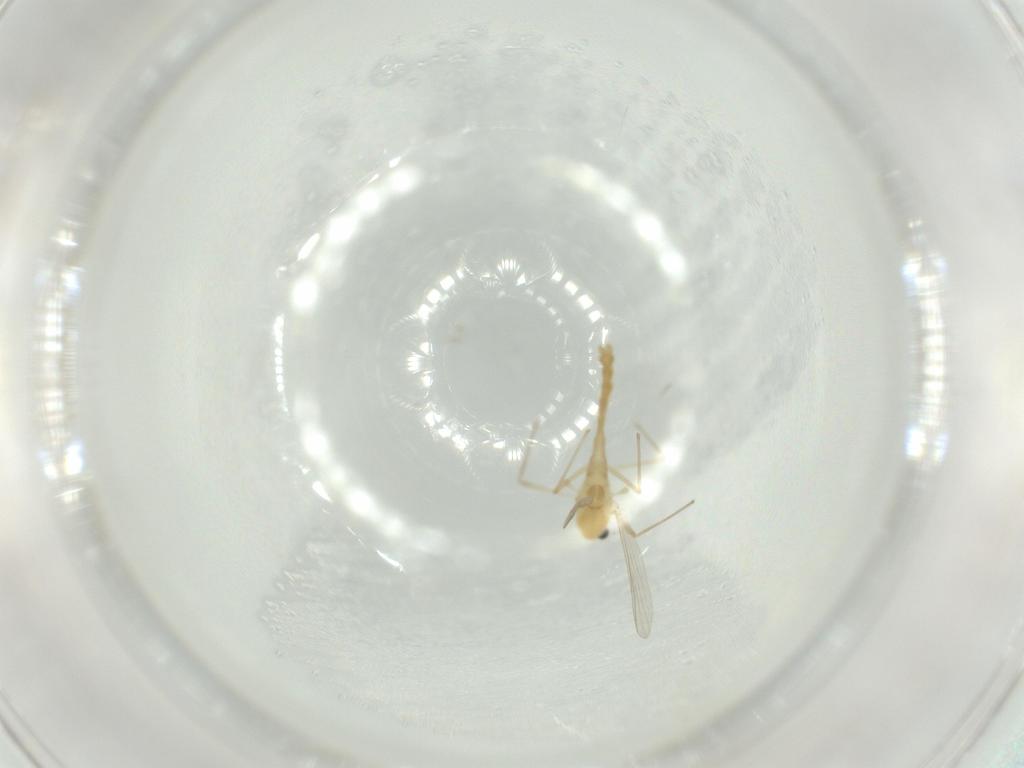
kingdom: Animalia
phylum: Arthropoda
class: Insecta
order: Diptera
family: Chironomidae
